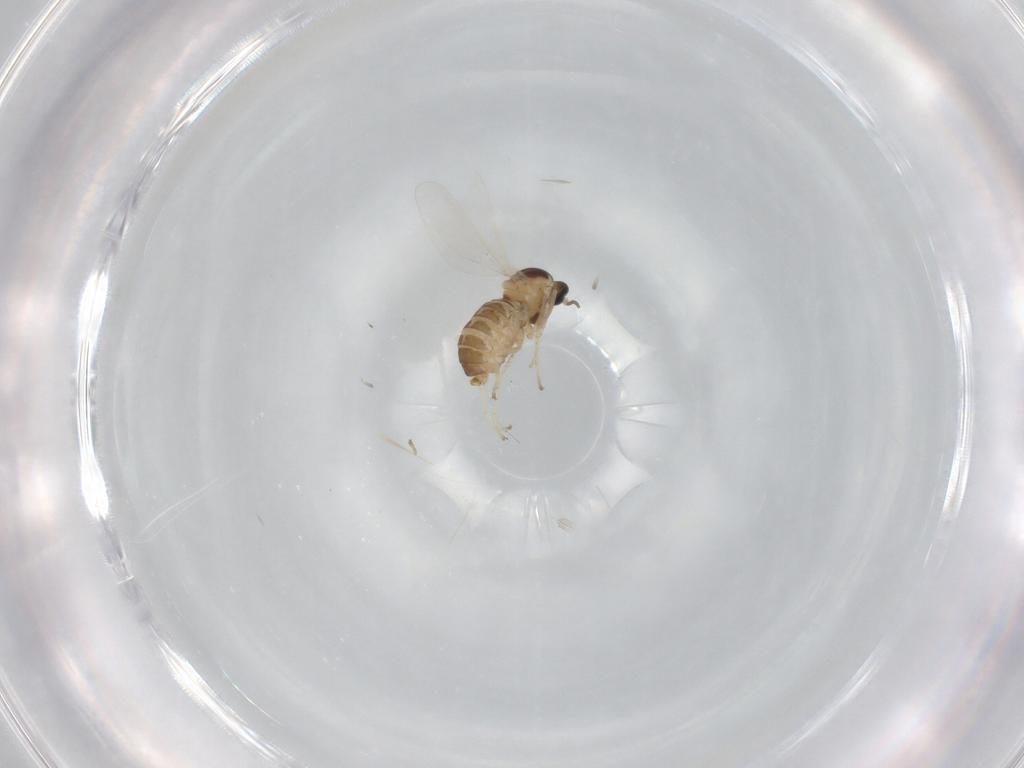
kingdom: Animalia
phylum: Arthropoda
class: Insecta
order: Diptera
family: Cecidomyiidae
